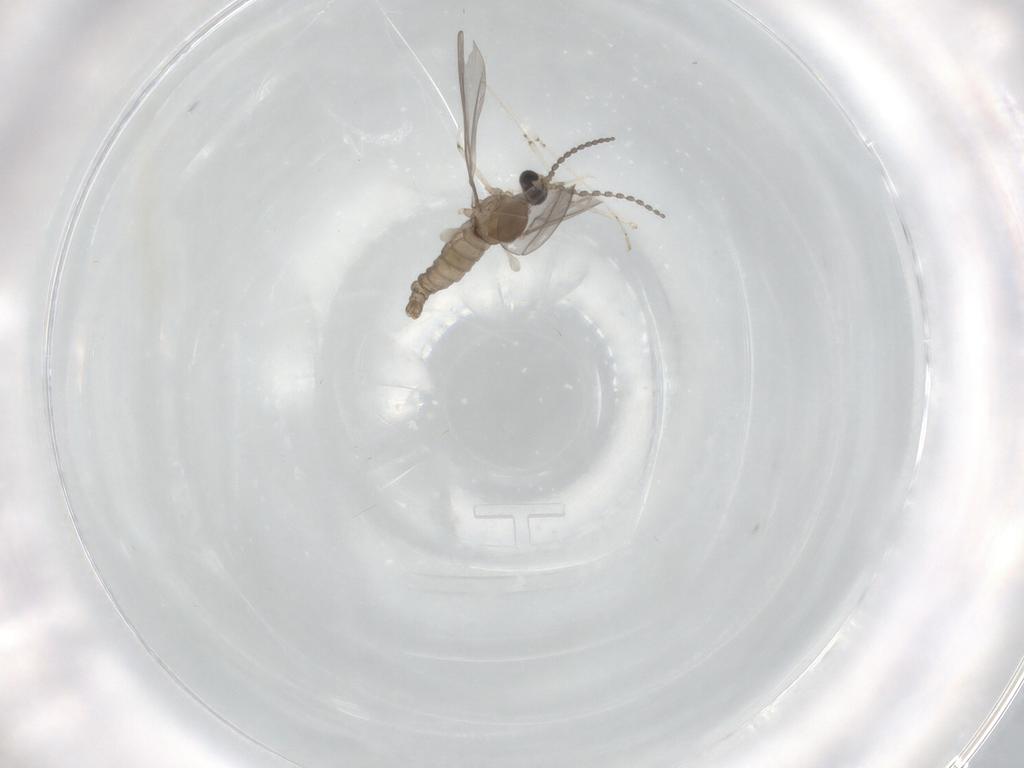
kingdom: Animalia
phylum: Arthropoda
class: Insecta
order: Diptera
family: Cecidomyiidae
